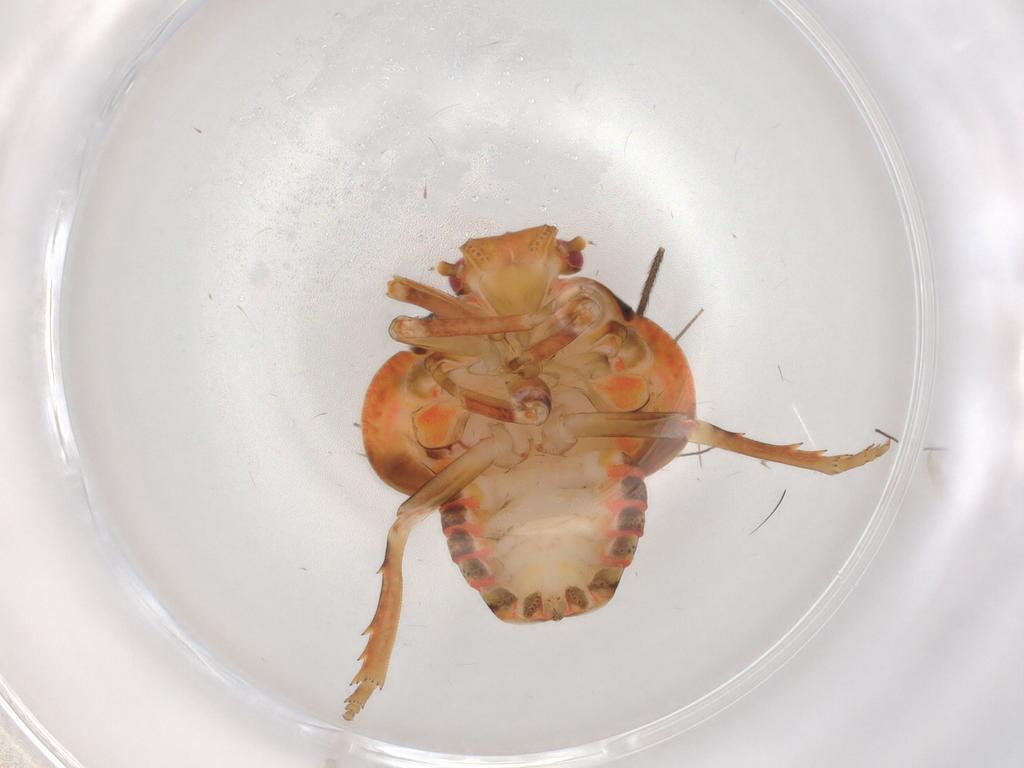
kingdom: Animalia
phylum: Arthropoda
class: Insecta
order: Hemiptera
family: Flatidae
